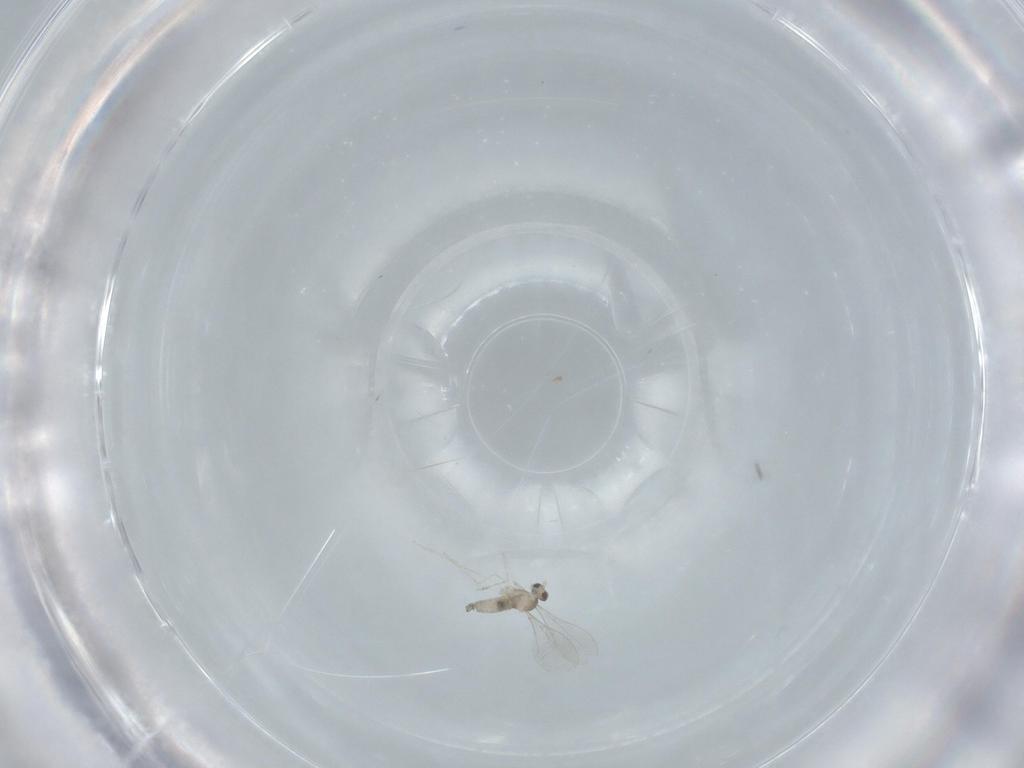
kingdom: Animalia
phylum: Arthropoda
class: Insecta
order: Diptera
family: Cecidomyiidae
